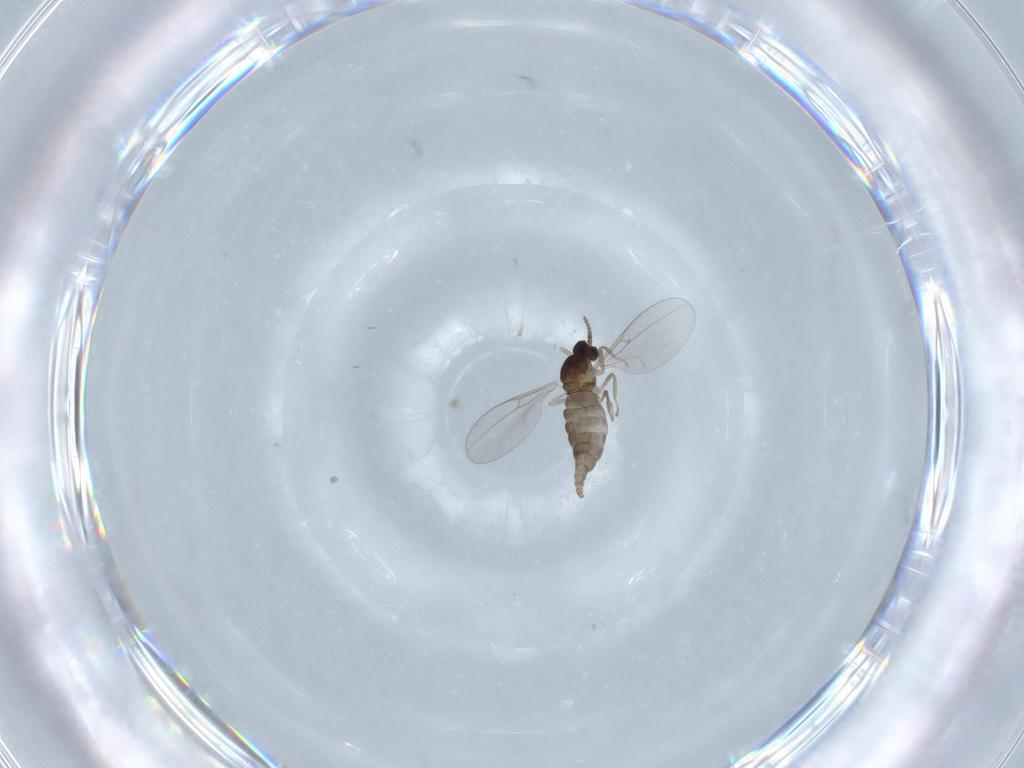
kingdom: Animalia
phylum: Arthropoda
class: Insecta
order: Diptera
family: Cecidomyiidae
